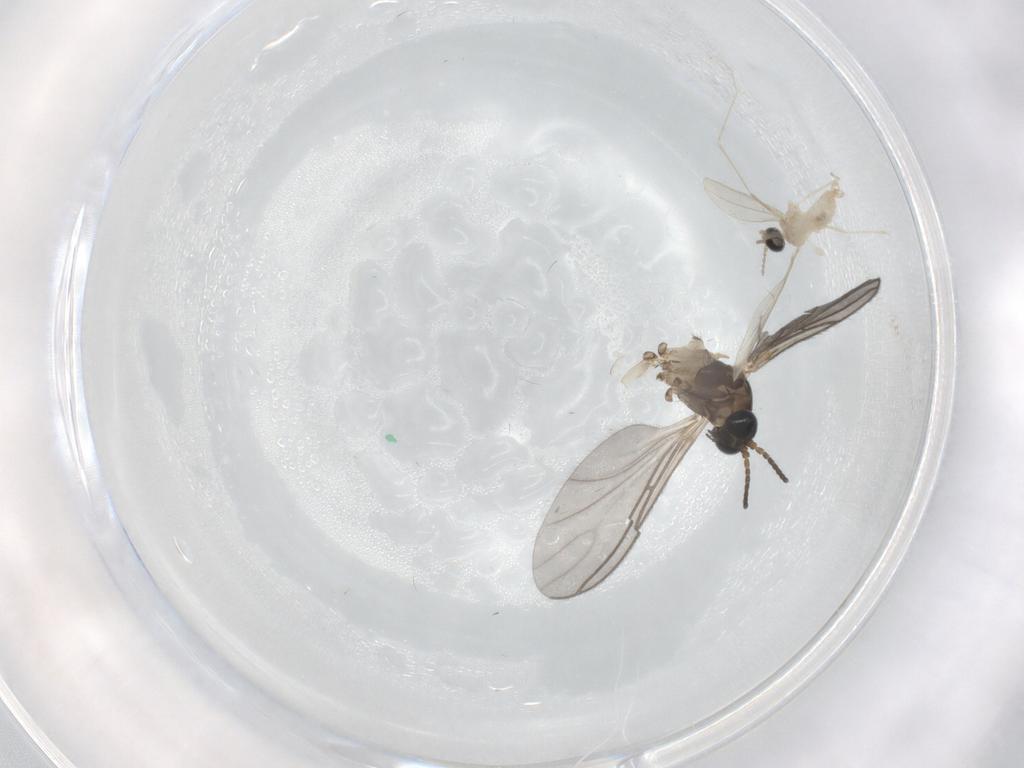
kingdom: Animalia
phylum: Arthropoda
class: Insecta
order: Diptera
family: Sciaridae
